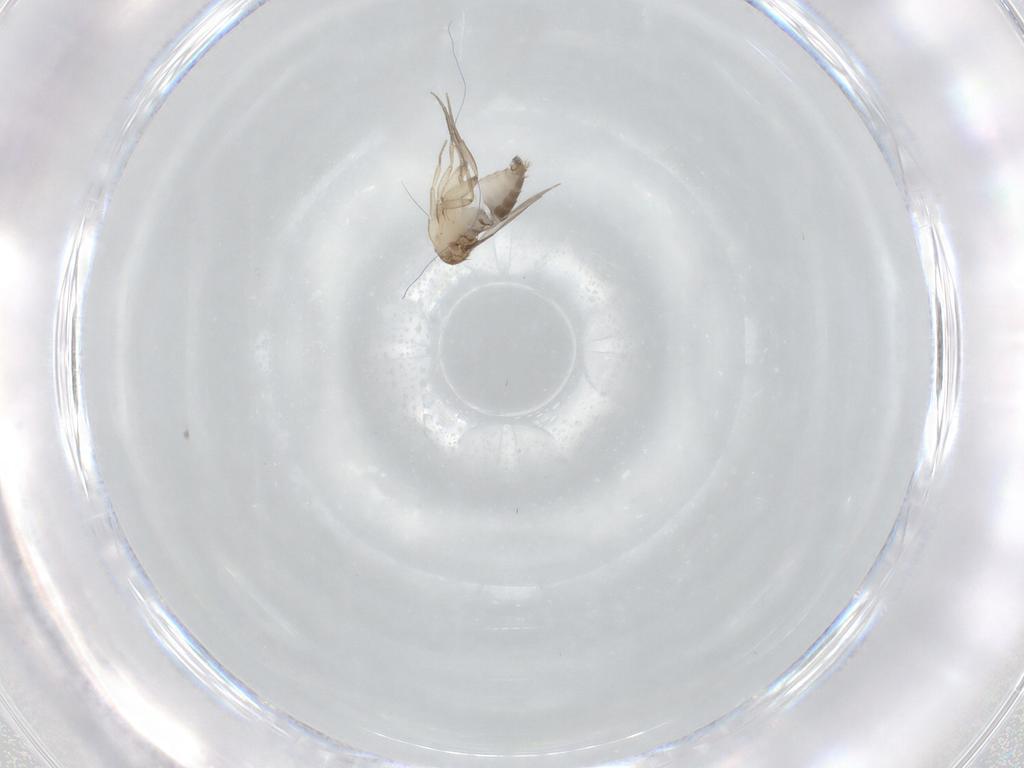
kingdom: Animalia
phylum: Arthropoda
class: Insecta
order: Diptera
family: Phoridae
